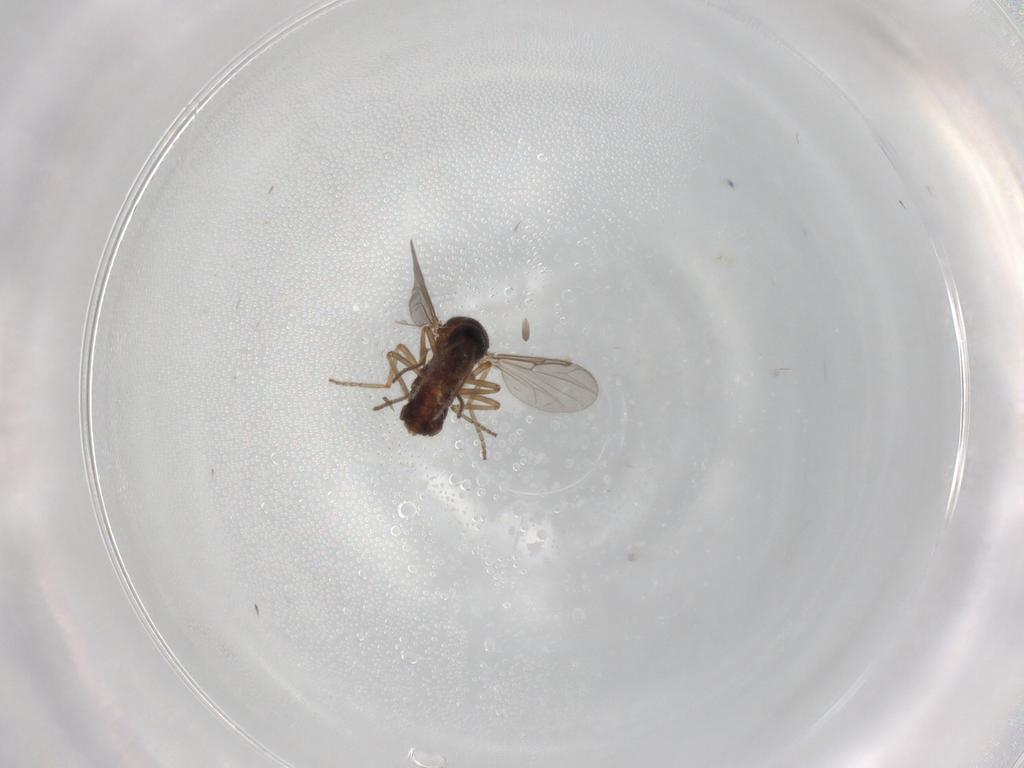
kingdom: Animalia
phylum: Arthropoda
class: Insecta
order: Diptera
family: Ceratopogonidae
